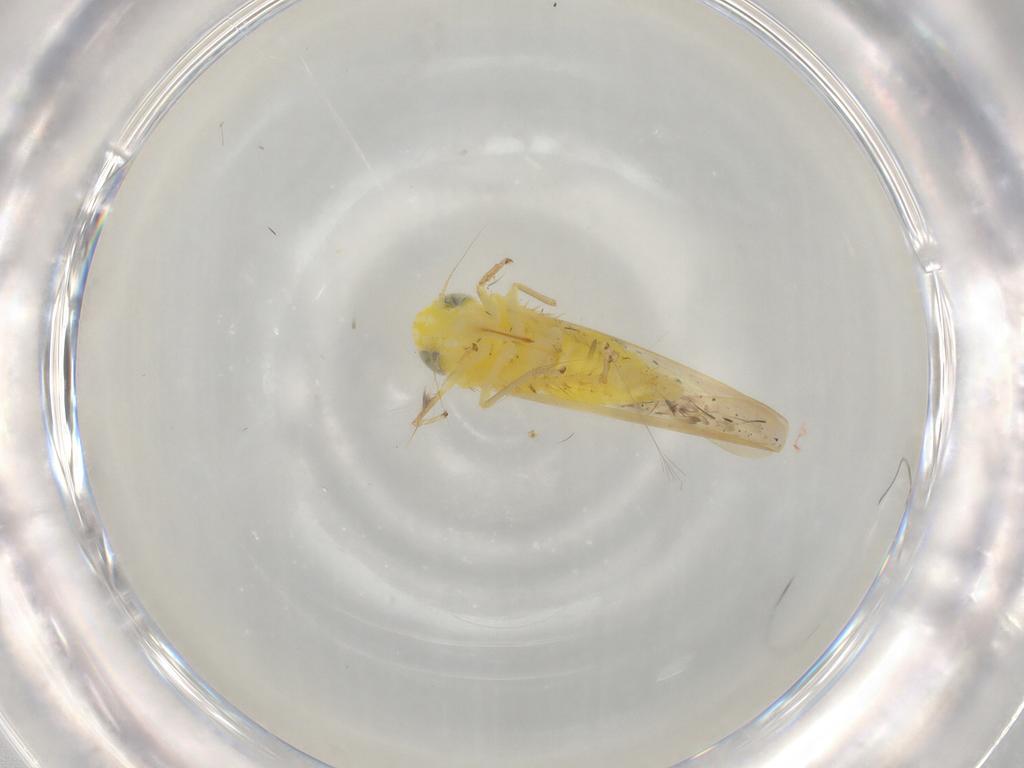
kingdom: Animalia
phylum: Arthropoda
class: Insecta
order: Hemiptera
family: Cicadellidae
